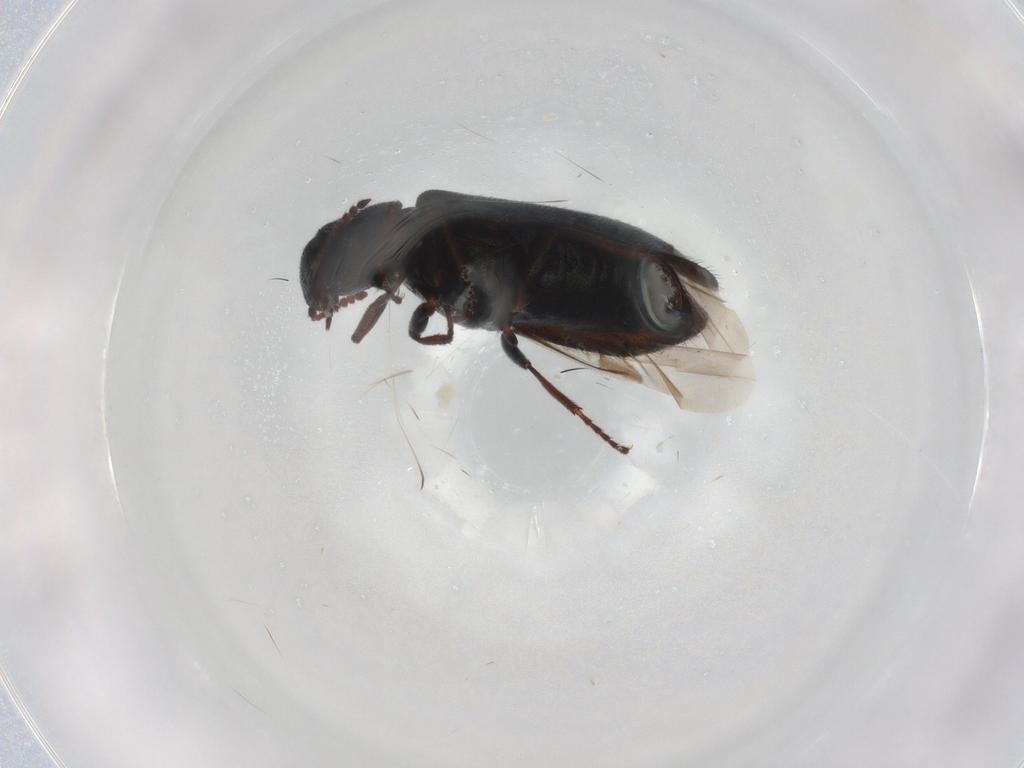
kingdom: Animalia
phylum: Arthropoda
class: Insecta
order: Coleoptera
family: Melyridae
